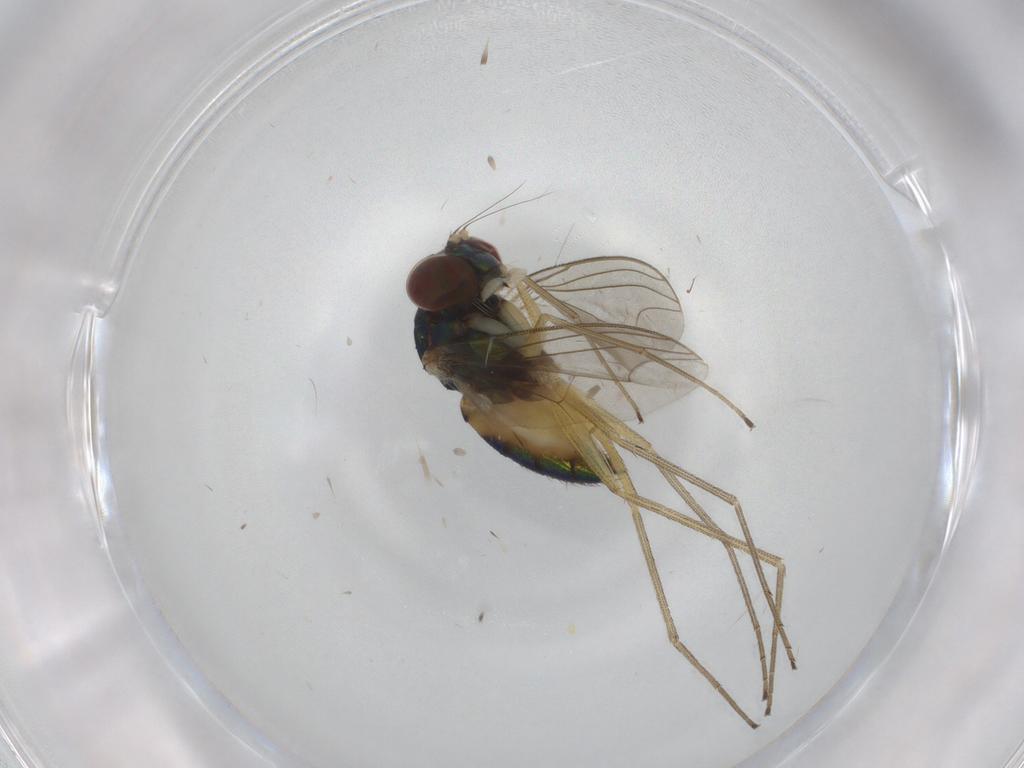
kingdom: Animalia
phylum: Arthropoda
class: Insecta
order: Diptera
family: Dolichopodidae
